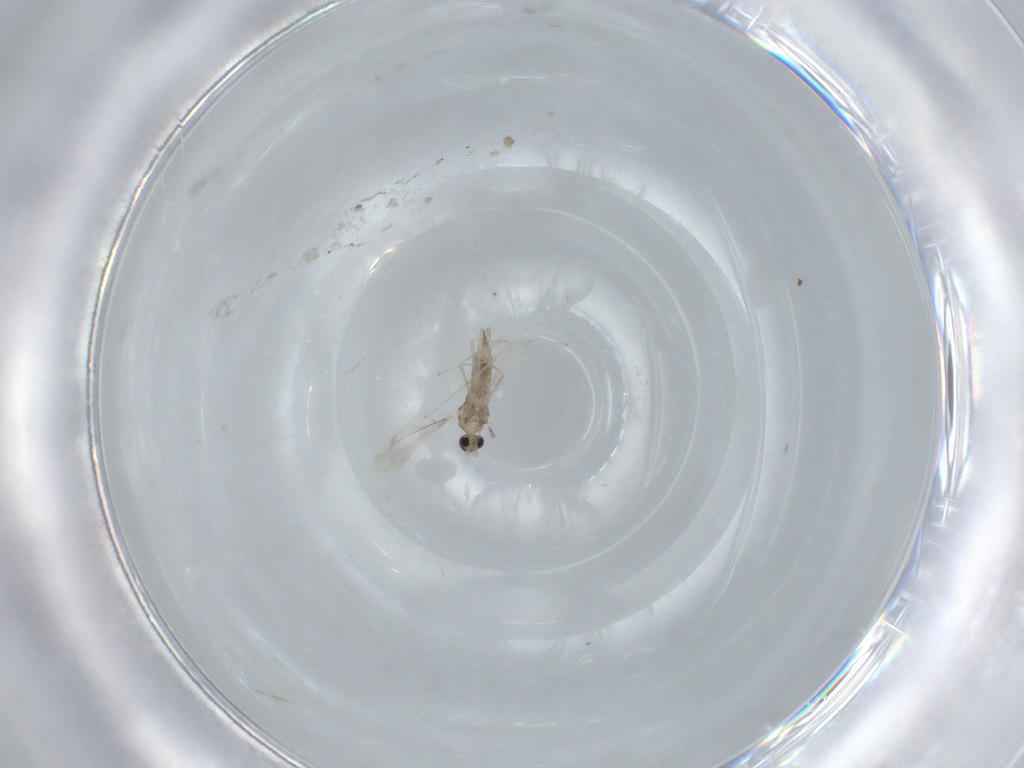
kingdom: Animalia
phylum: Arthropoda
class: Insecta
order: Diptera
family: Ceratopogonidae
